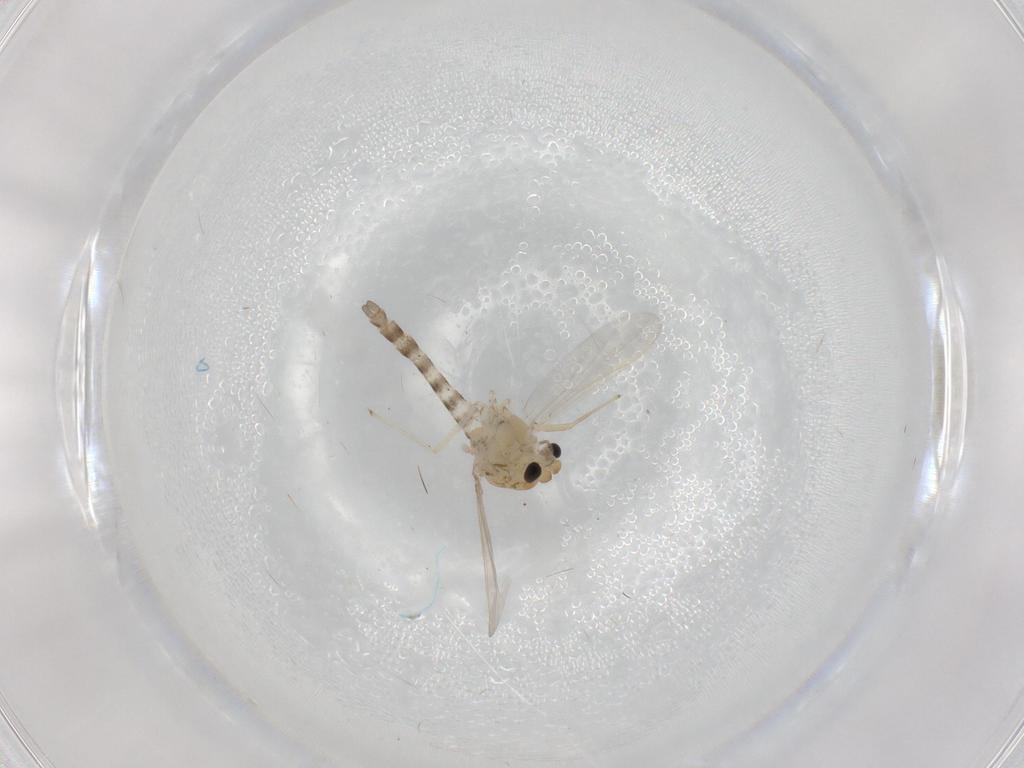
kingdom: Animalia
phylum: Arthropoda
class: Insecta
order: Diptera
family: Chironomidae
